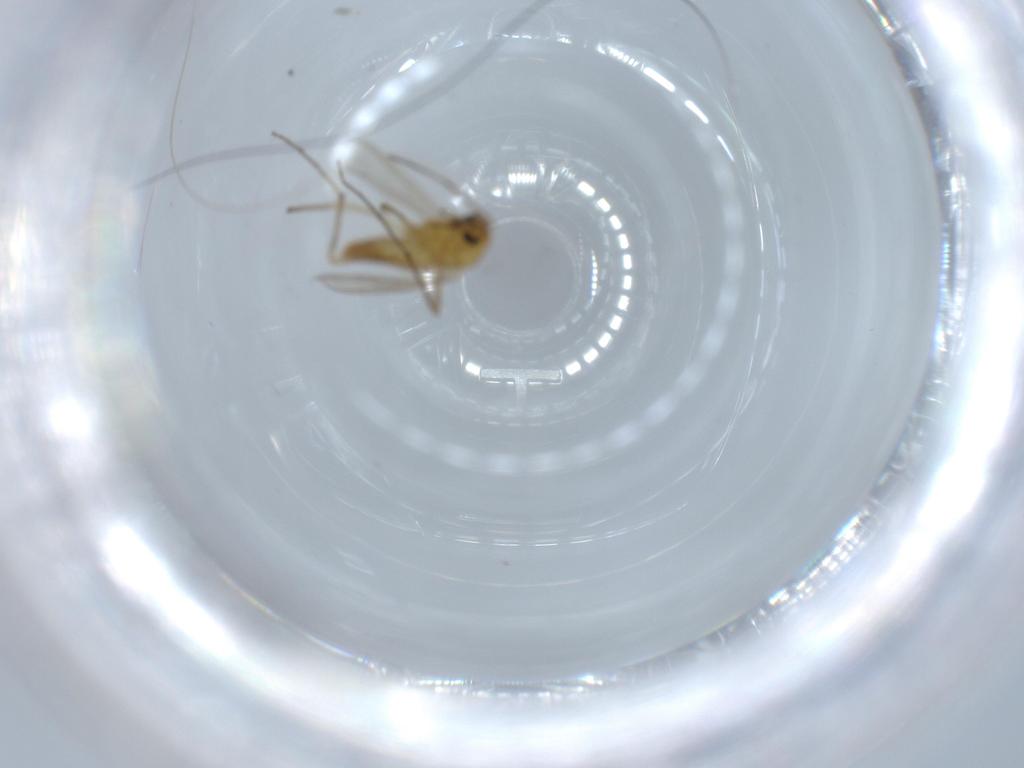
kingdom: Animalia
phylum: Arthropoda
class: Insecta
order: Diptera
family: Chironomidae
